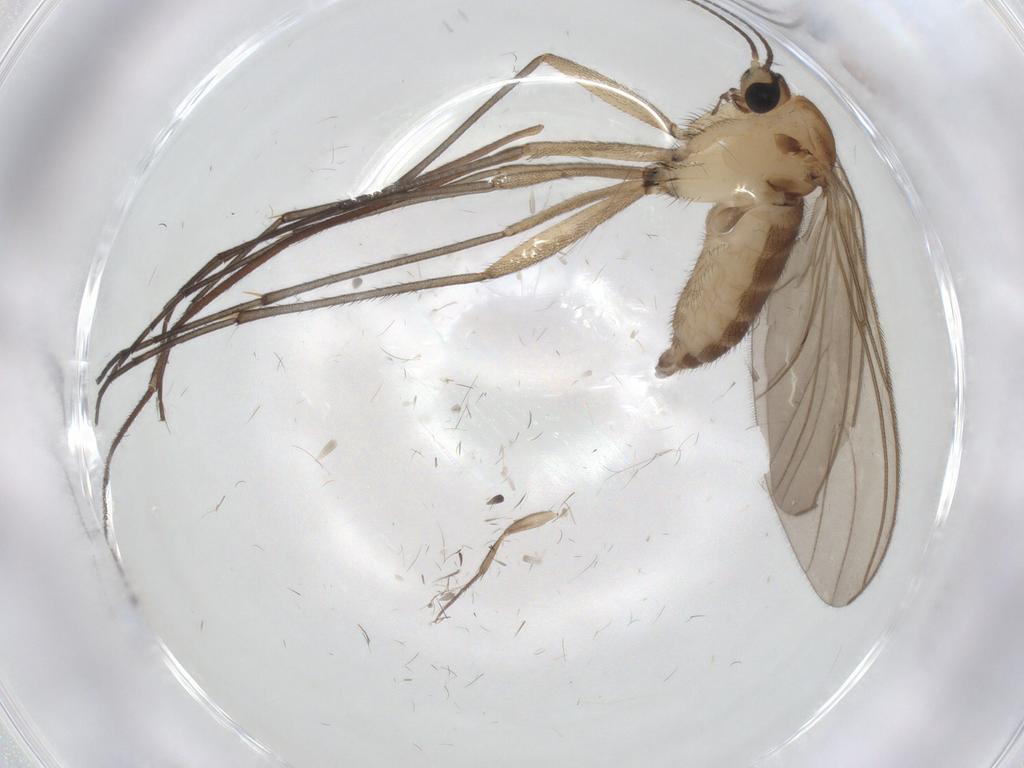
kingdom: Animalia
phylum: Arthropoda
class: Insecta
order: Diptera
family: Sciaridae
